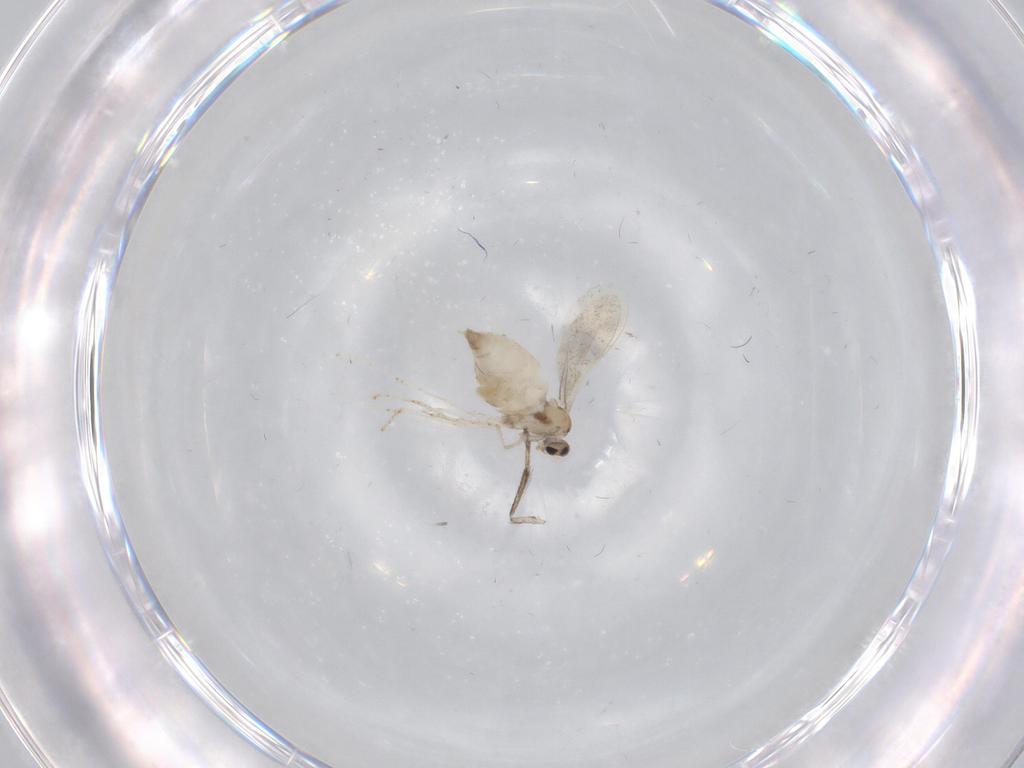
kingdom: Animalia
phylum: Arthropoda
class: Insecta
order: Diptera
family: Cecidomyiidae
